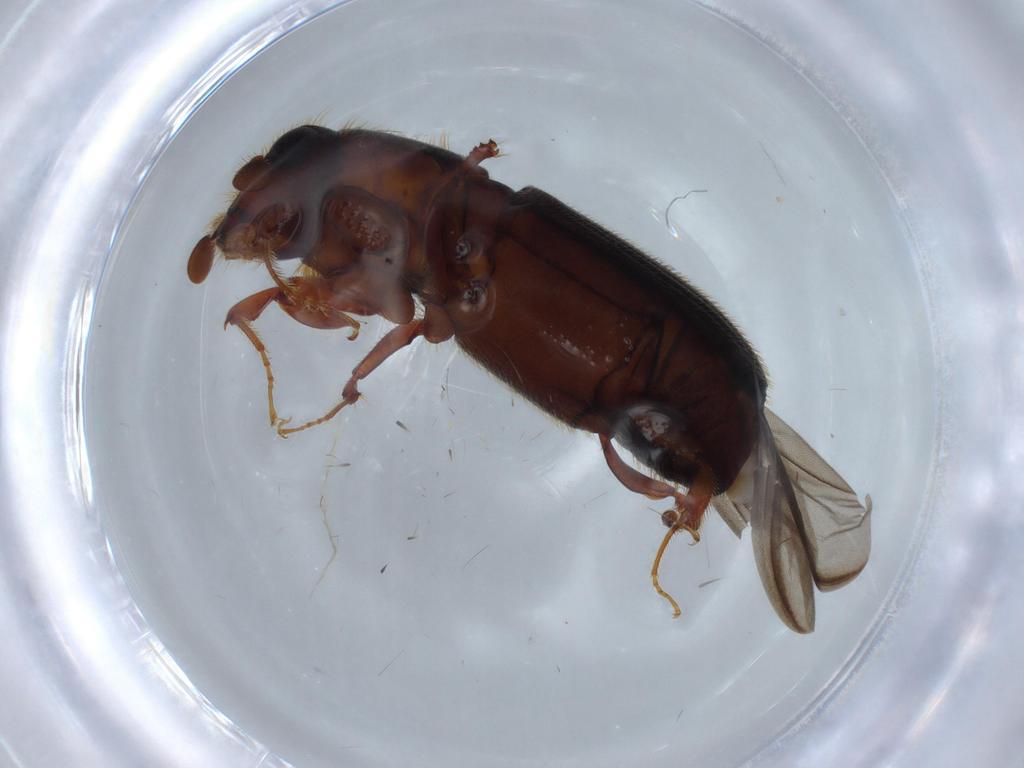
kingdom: Animalia
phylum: Arthropoda
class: Insecta
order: Coleoptera
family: Curculionidae
